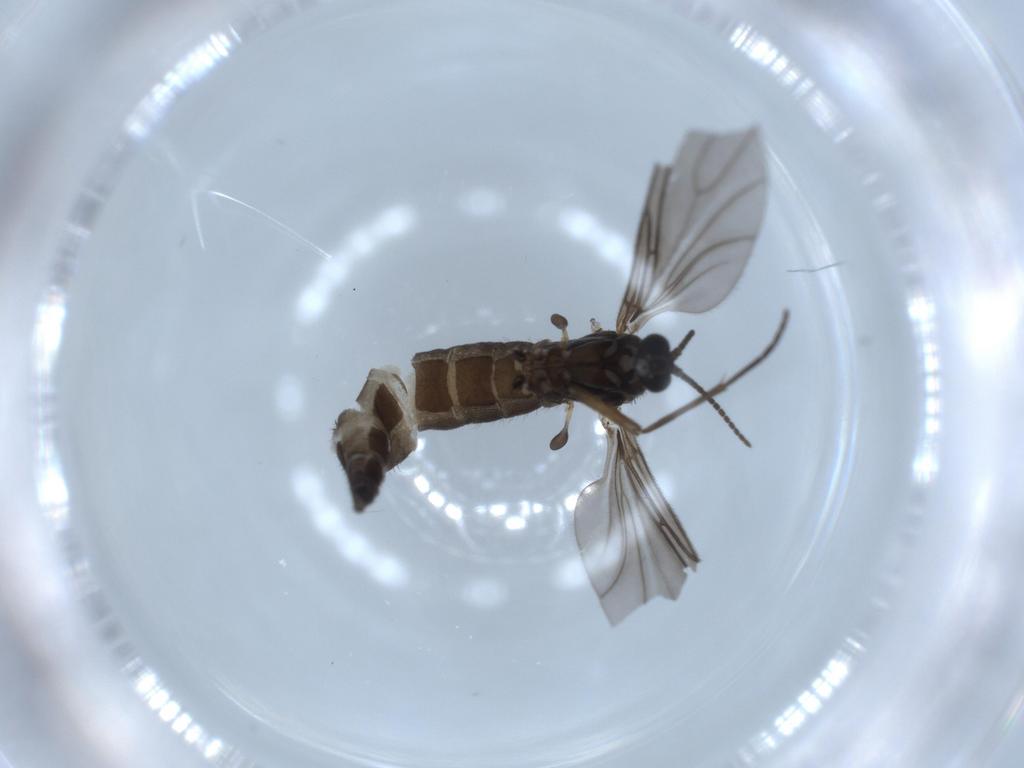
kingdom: Animalia
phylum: Arthropoda
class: Insecta
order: Diptera
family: Sciaridae
